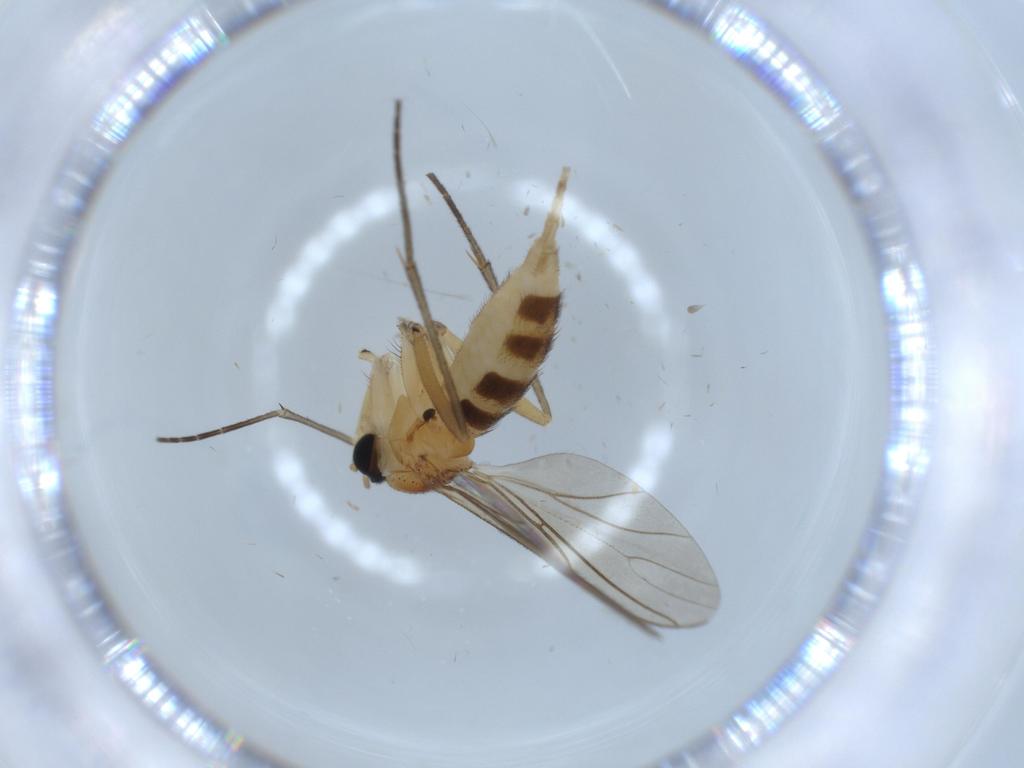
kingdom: Animalia
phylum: Arthropoda
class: Insecta
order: Diptera
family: Sciaridae
